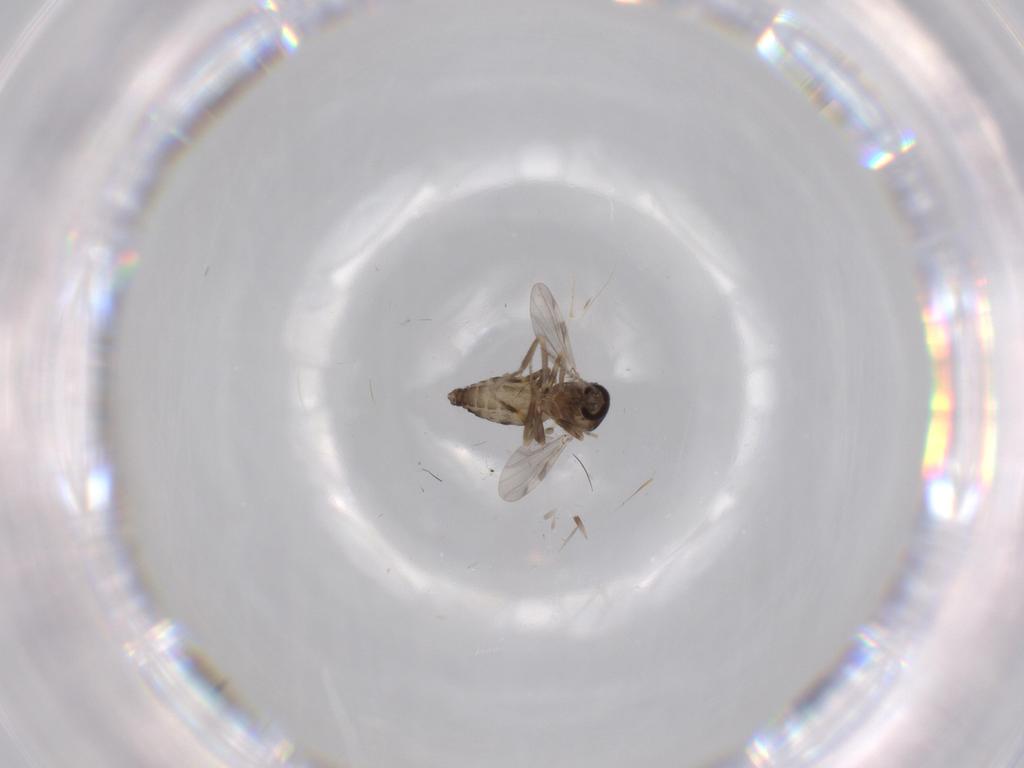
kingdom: Animalia
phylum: Arthropoda
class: Insecta
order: Diptera
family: Ceratopogonidae
